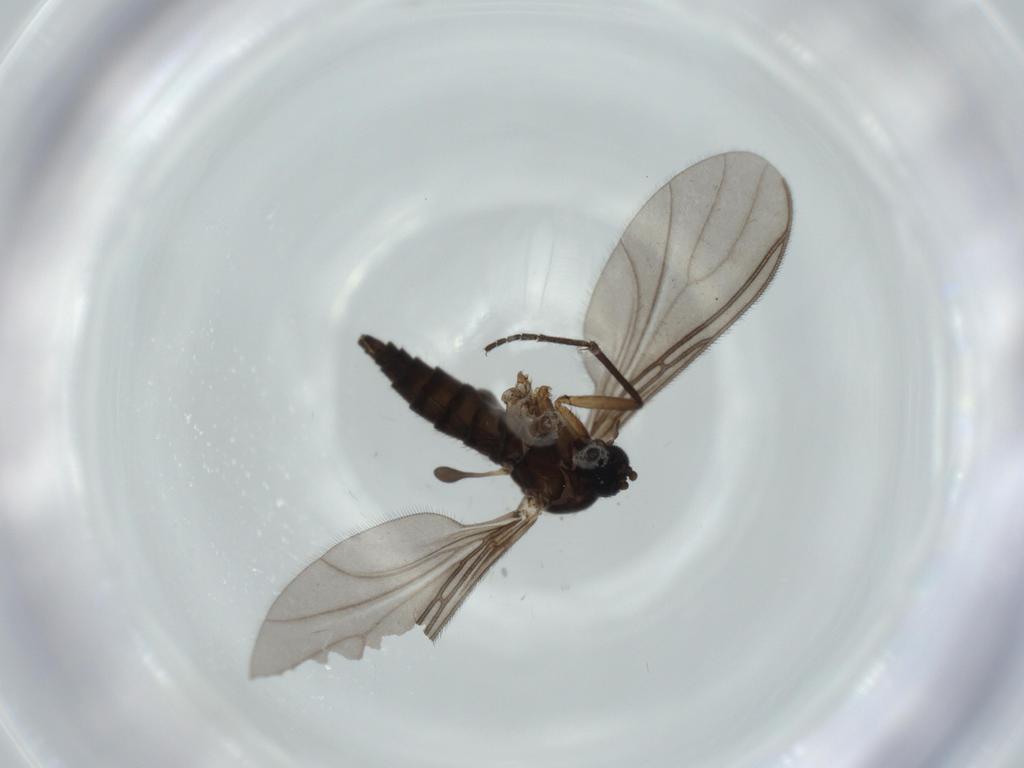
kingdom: Animalia
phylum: Arthropoda
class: Insecta
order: Diptera
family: Sciaridae
